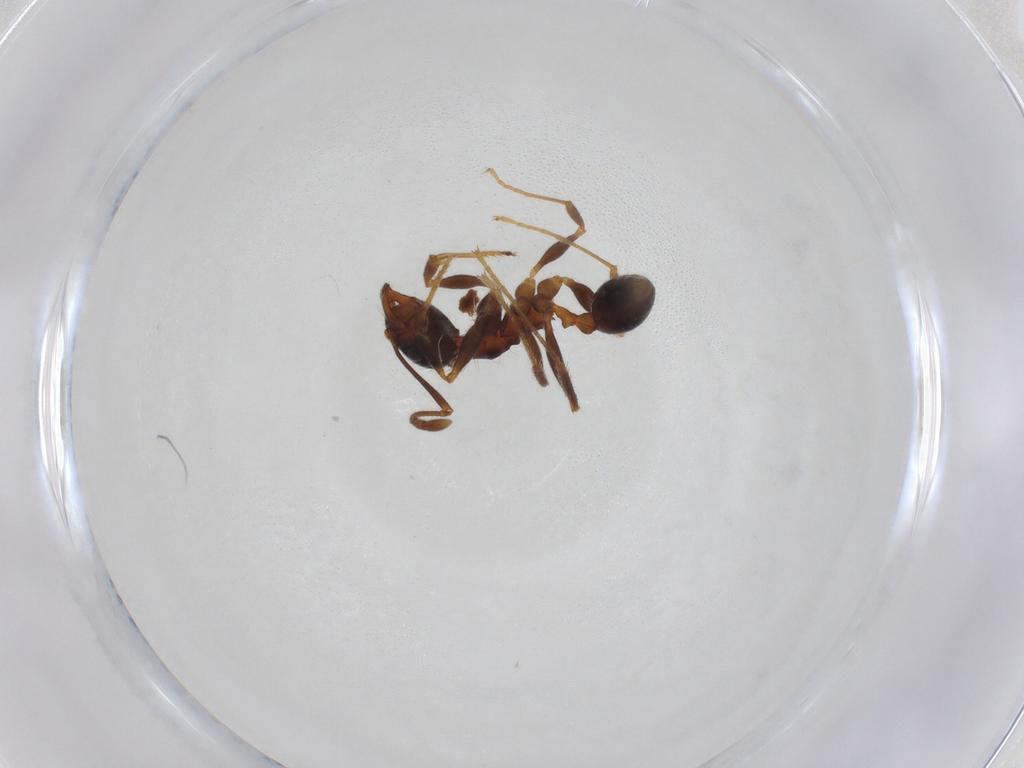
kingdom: Animalia
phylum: Arthropoda
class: Insecta
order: Hymenoptera
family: Formicidae
